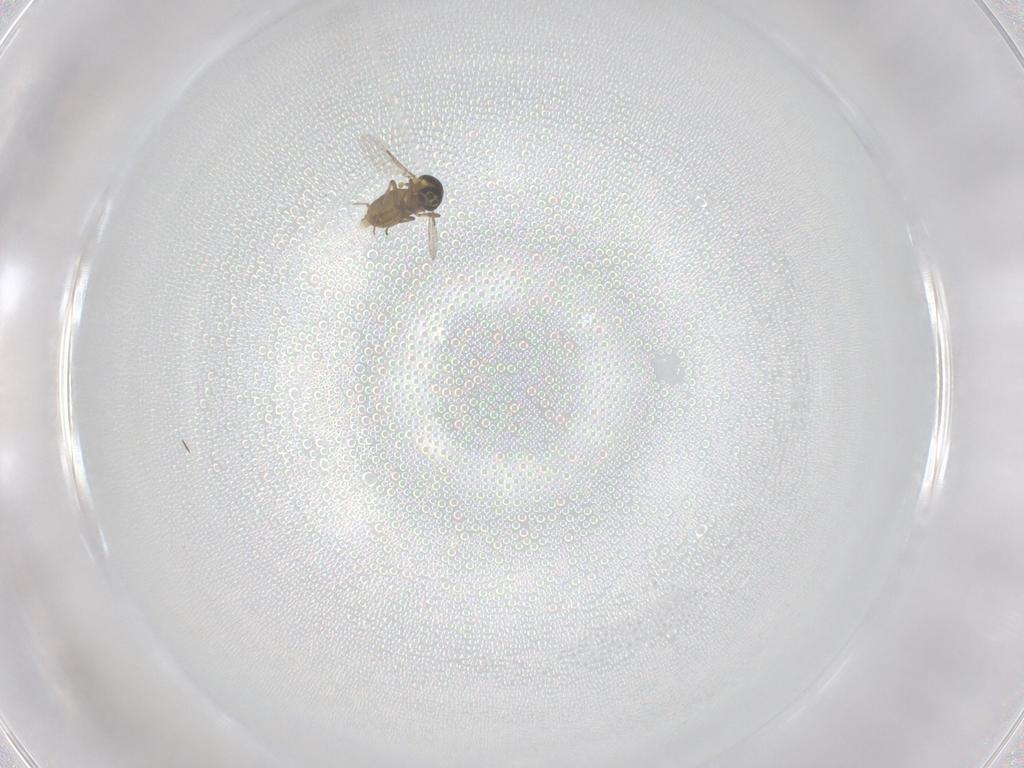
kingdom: Animalia
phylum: Arthropoda
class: Insecta
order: Diptera
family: Ceratopogonidae
